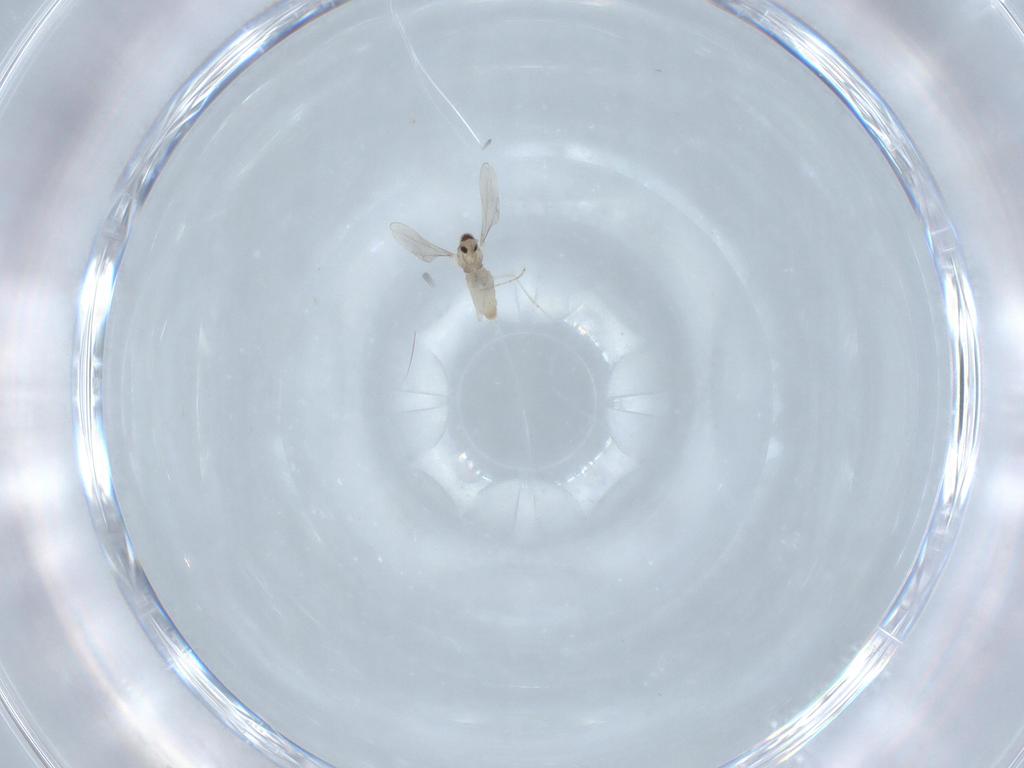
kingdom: Animalia
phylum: Arthropoda
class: Insecta
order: Diptera
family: Cecidomyiidae
